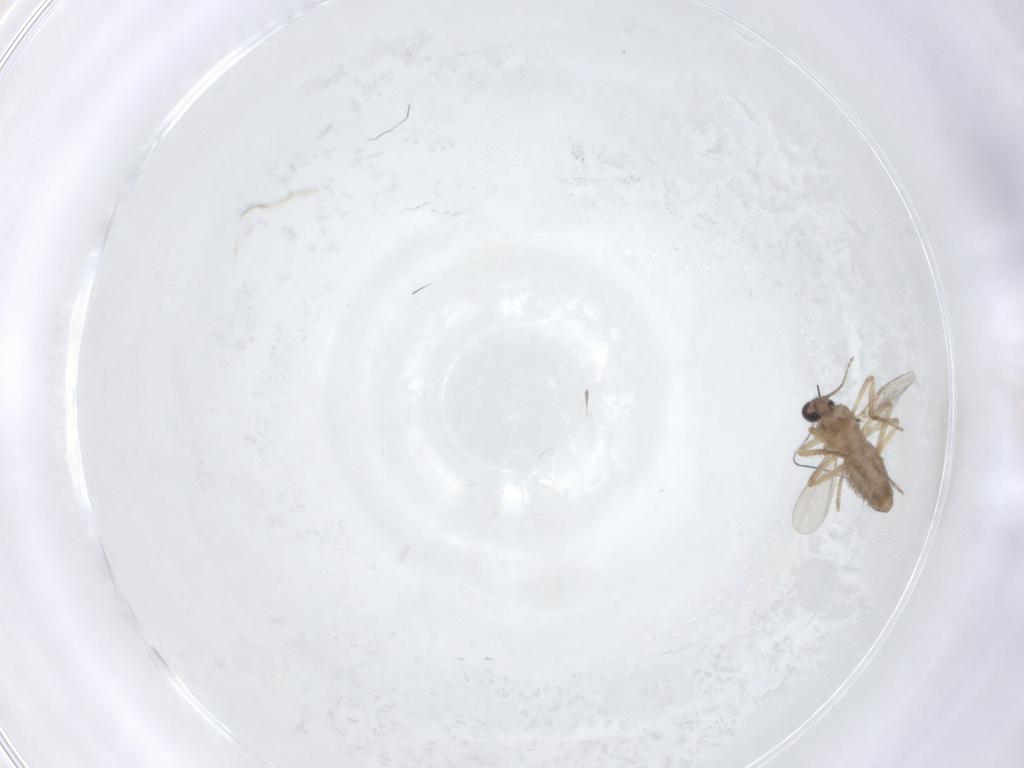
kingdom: Animalia
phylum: Arthropoda
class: Insecta
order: Diptera
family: Ceratopogonidae
